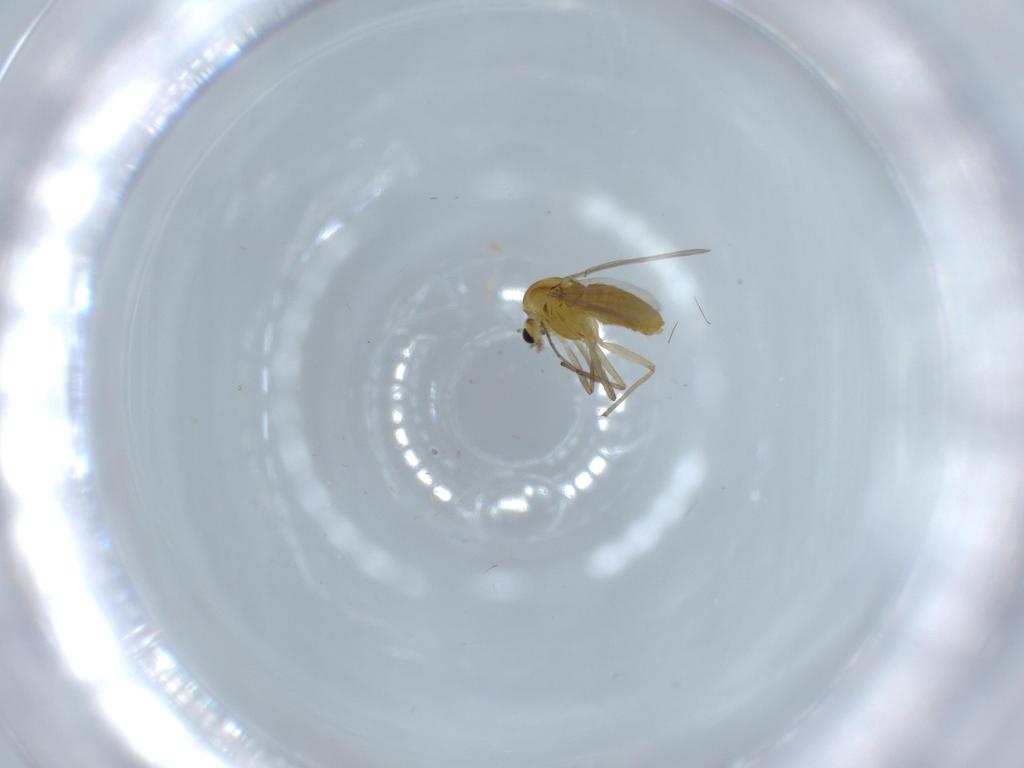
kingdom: Animalia
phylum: Arthropoda
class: Insecta
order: Diptera
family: Chironomidae
